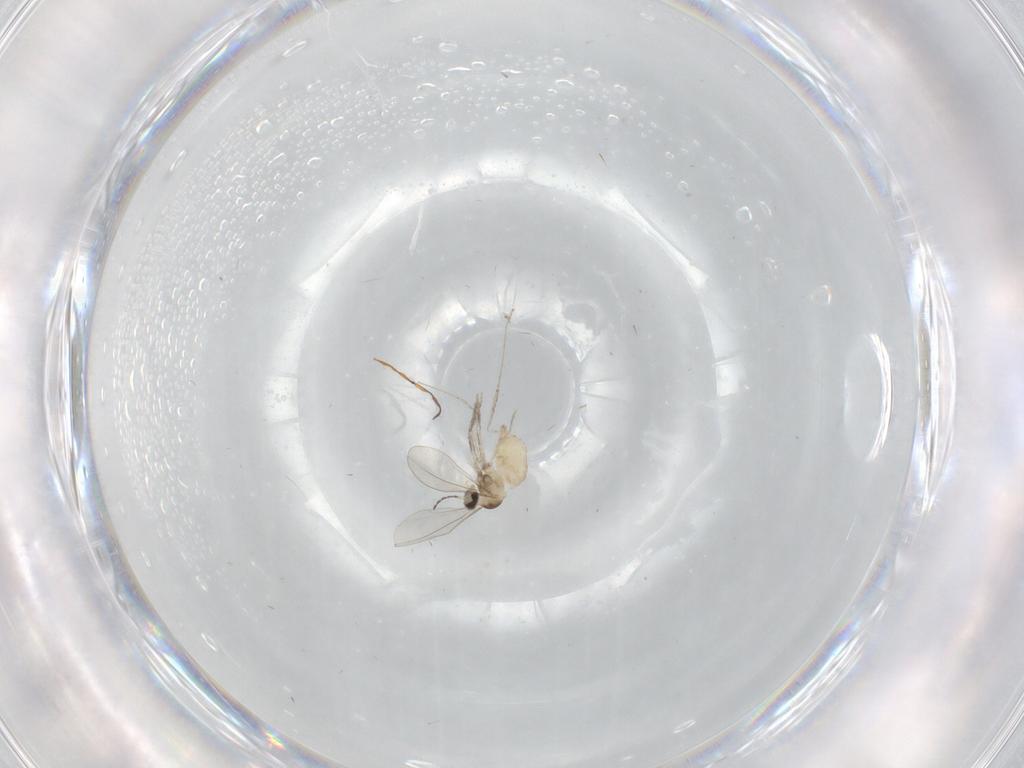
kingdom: Animalia
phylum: Arthropoda
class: Insecta
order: Diptera
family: Cecidomyiidae
